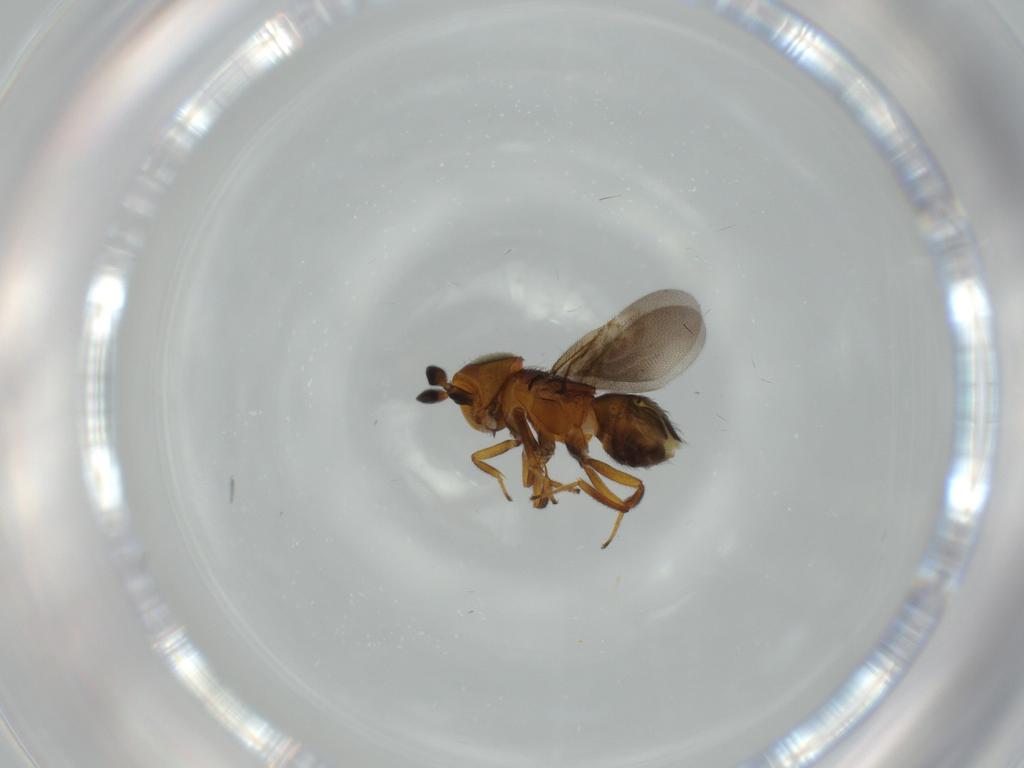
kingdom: Animalia
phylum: Arthropoda
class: Insecta
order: Hymenoptera
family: Encyrtidae
